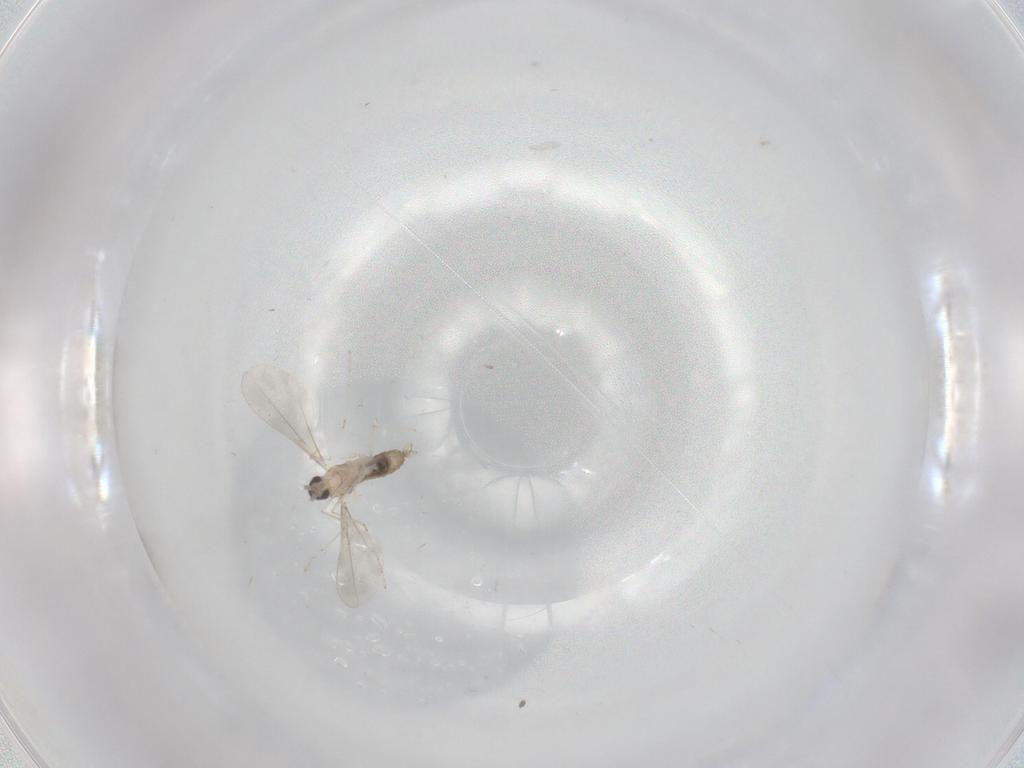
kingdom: Animalia
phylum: Arthropoda
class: Insecta
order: Diptera
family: Cecidomyiidae
